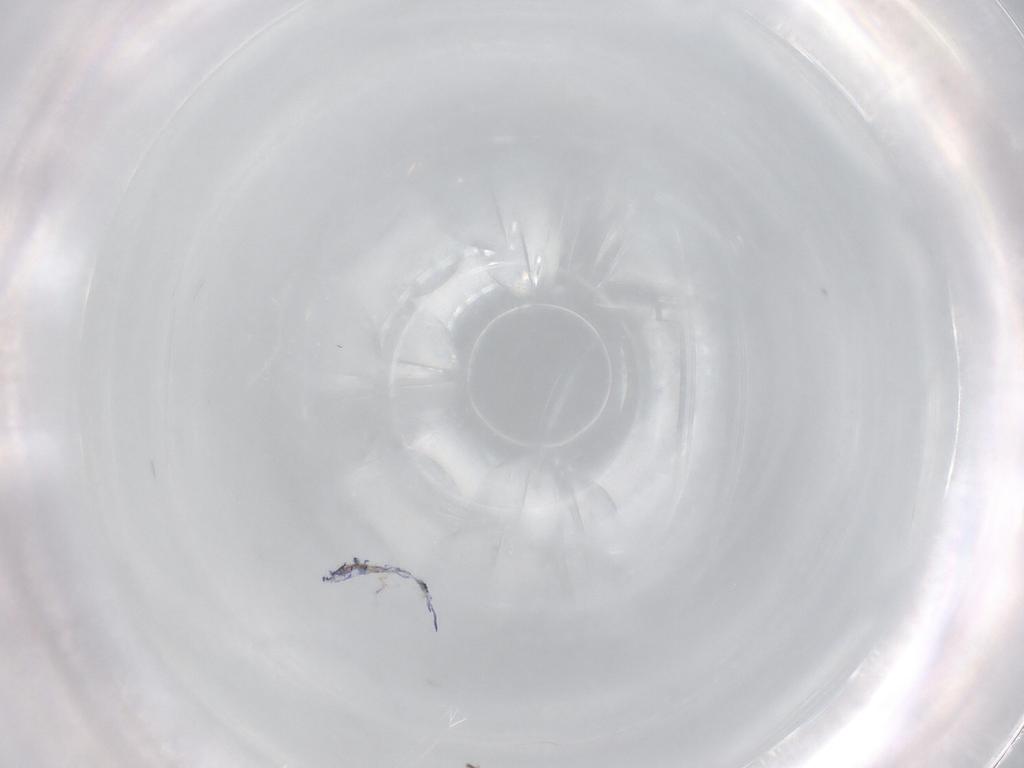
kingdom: Animalia
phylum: Arthropoda
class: Collembola
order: Entomobryomorpha
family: Entomobryidae
